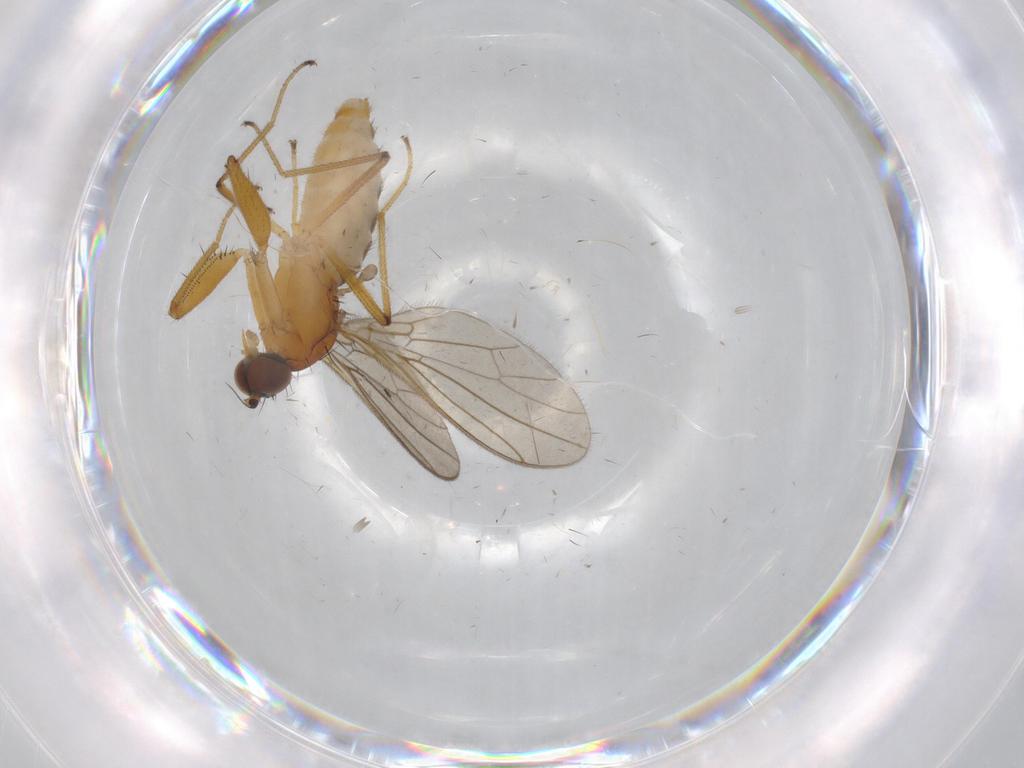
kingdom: Animalia
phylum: Arthropoda
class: Insecta
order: Diptera
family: Empididae
